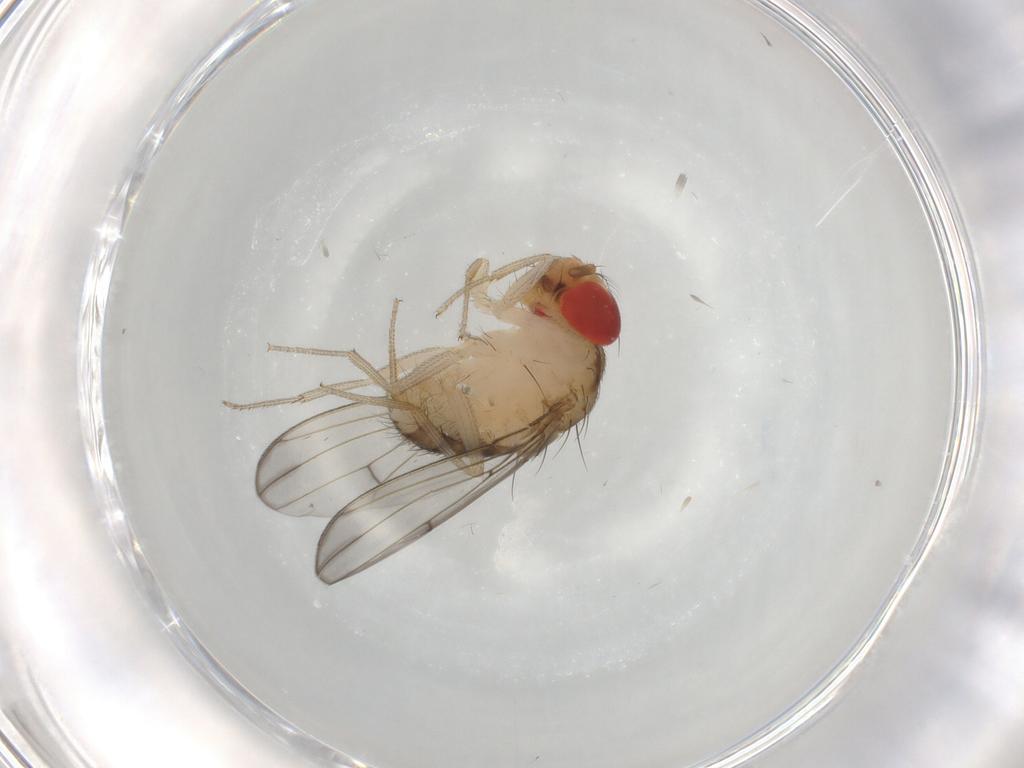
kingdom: Animalia
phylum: Arthropoda
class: Insecta
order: Diptera
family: Drosophilidae
